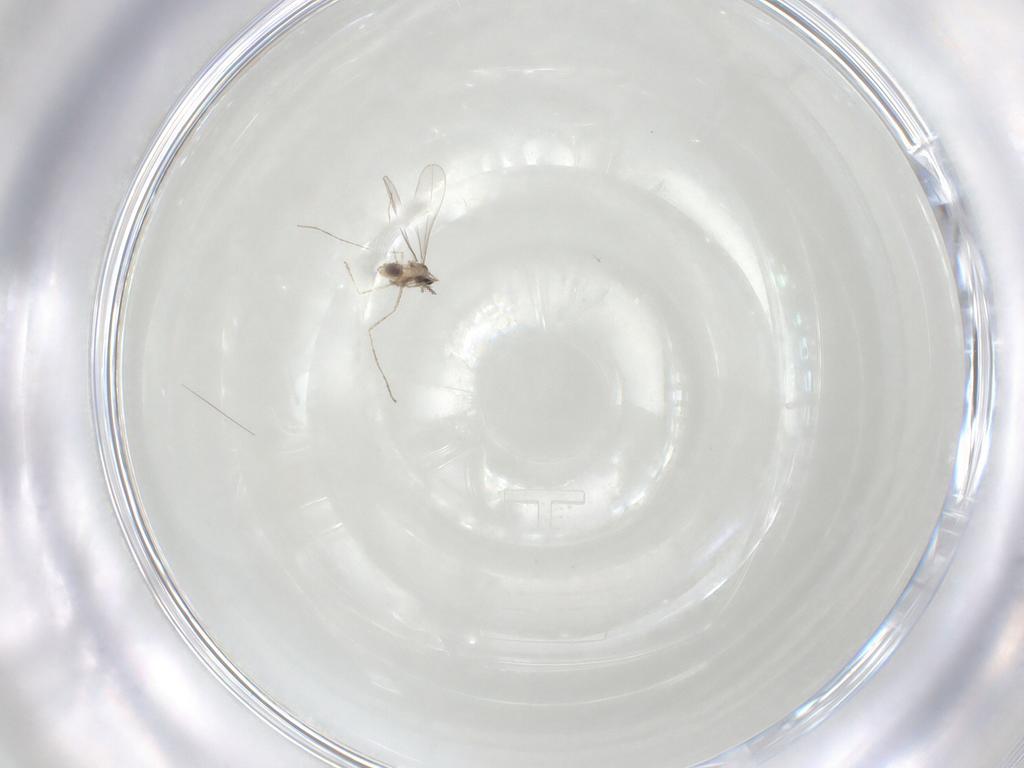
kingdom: Animalia
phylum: Arthropoda
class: Insecta
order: Diptera
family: Cecidomyiidae
